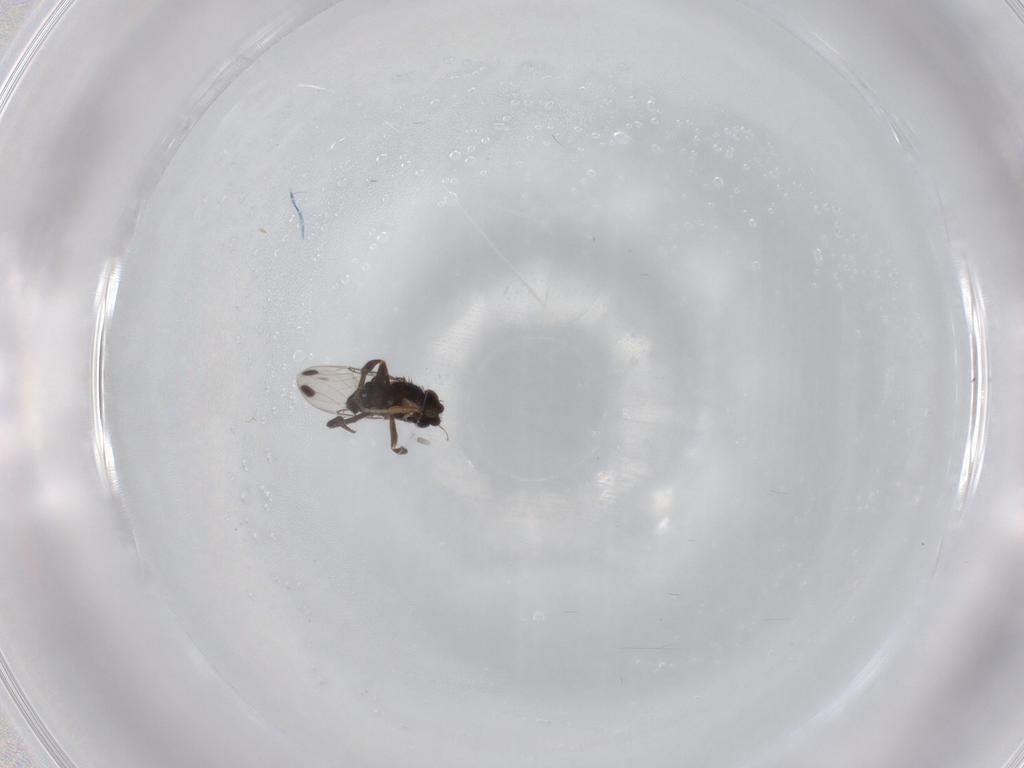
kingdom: Animalia
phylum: Arthropoda
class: Insecta
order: Diptera
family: Phoridae
